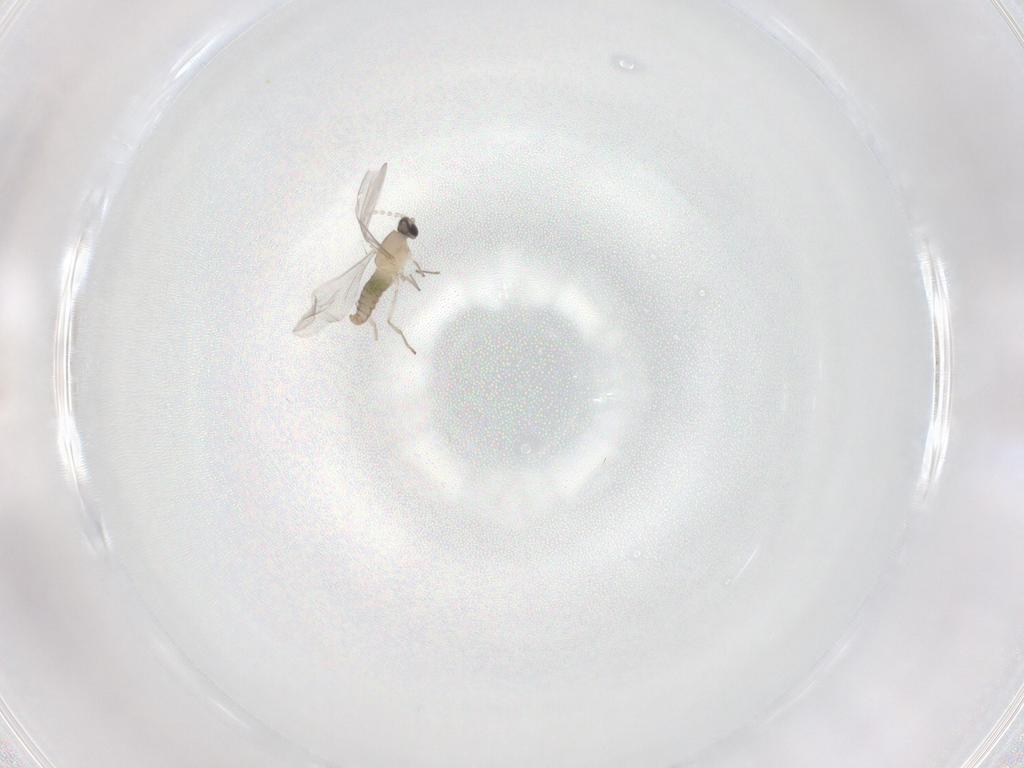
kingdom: Animalia
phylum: Arthropoda
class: Insecta
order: Diptera
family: Cecidomyiidae
